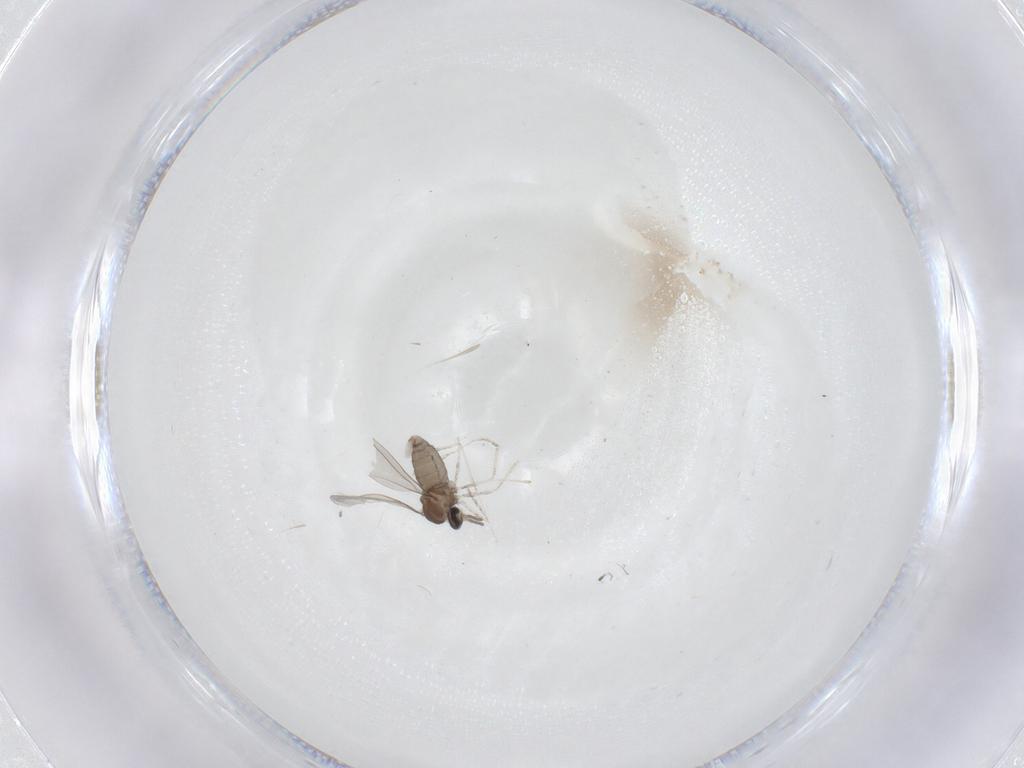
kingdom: Animalia
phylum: Arthropoda
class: Insecta
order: Diptera
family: Cecidomyiidae
